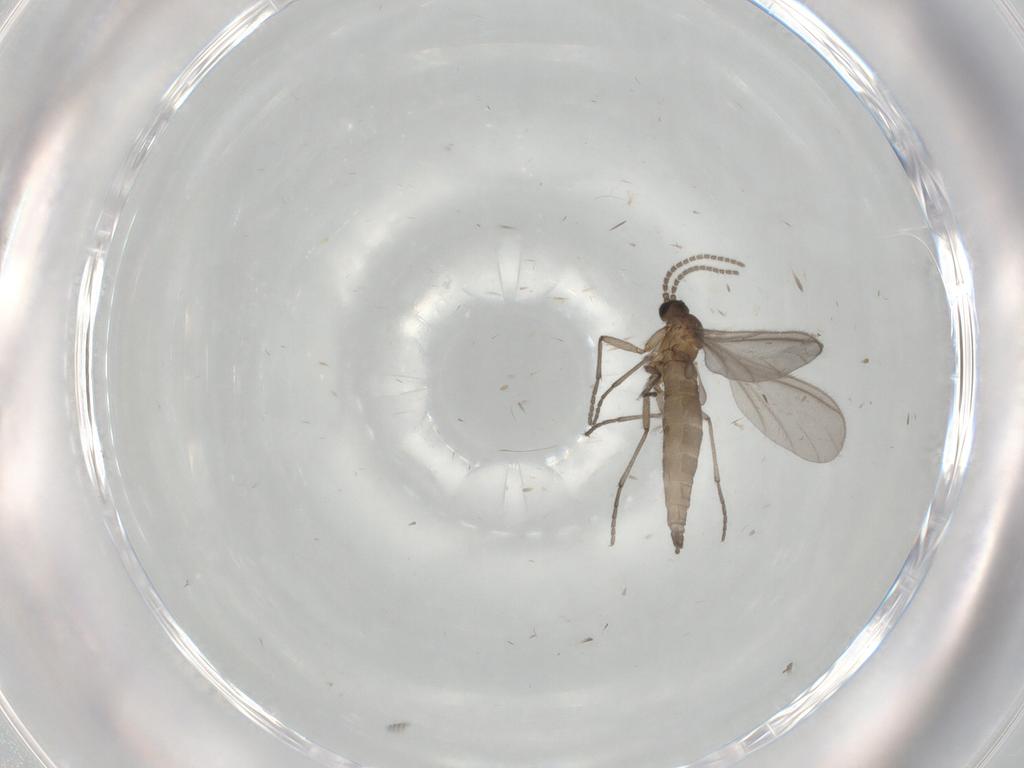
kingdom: Animalia
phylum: Arthropoda
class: Insecta
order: Diptera
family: Sciaridae
